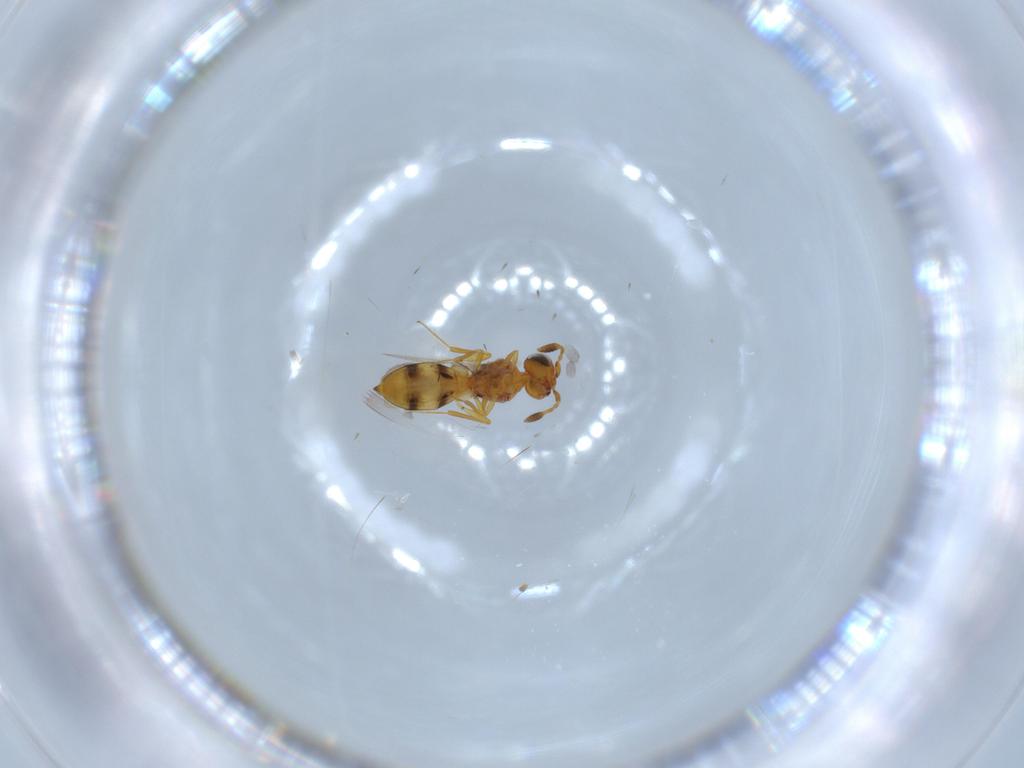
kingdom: Animalia
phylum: Arthropoda
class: Insecta
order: Hymenoptera
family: Scelionidae
